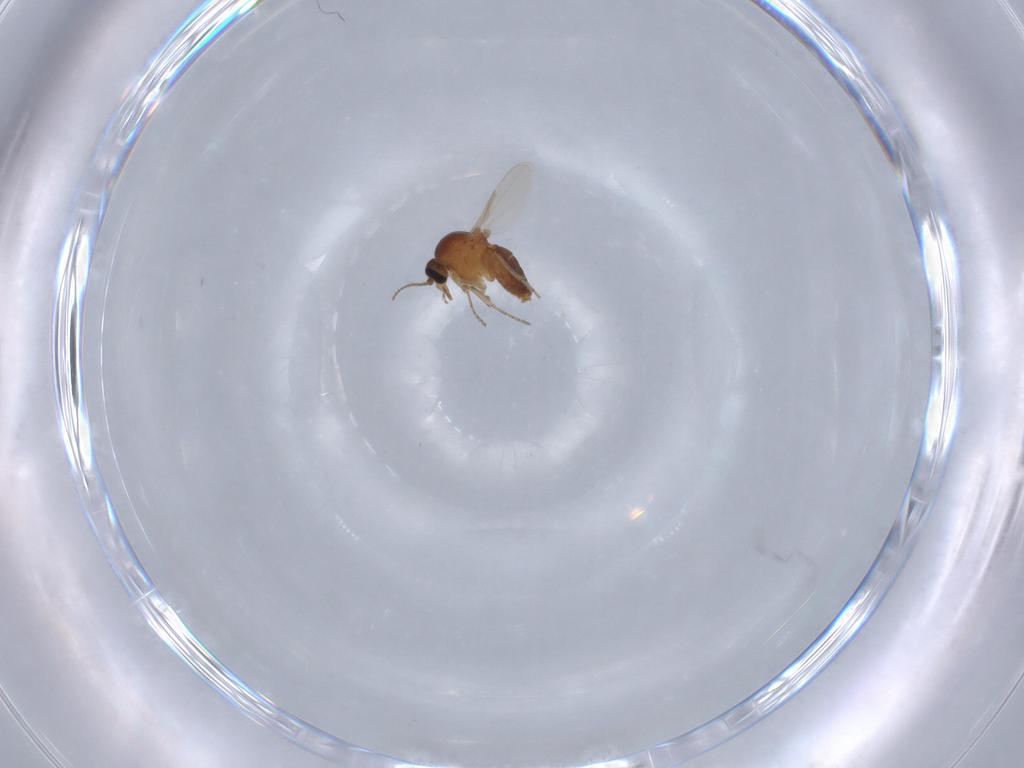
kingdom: Animalia
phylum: Arthropoda
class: Insecta
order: Diptera
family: Ceratopogonidae
